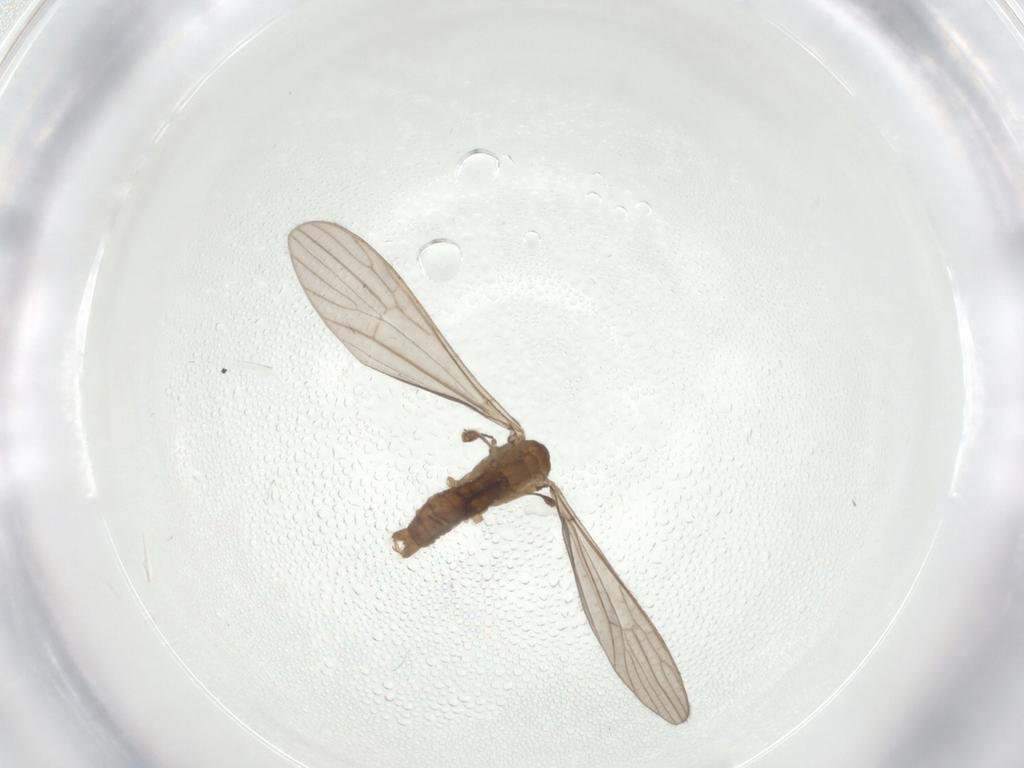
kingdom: Animalia
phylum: Arthropoda
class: Insecta
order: Diptera
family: Limoniidae
